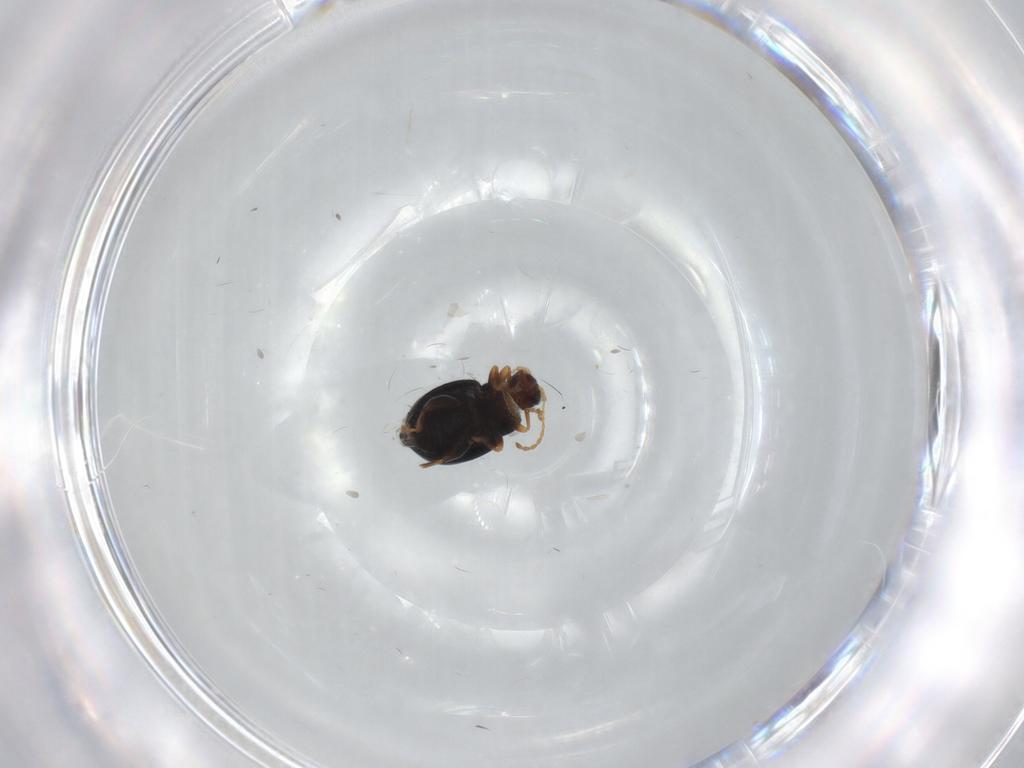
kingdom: Animalia
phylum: Arthropoda
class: Insecta
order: Coleoptera
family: Chrysomelidae
